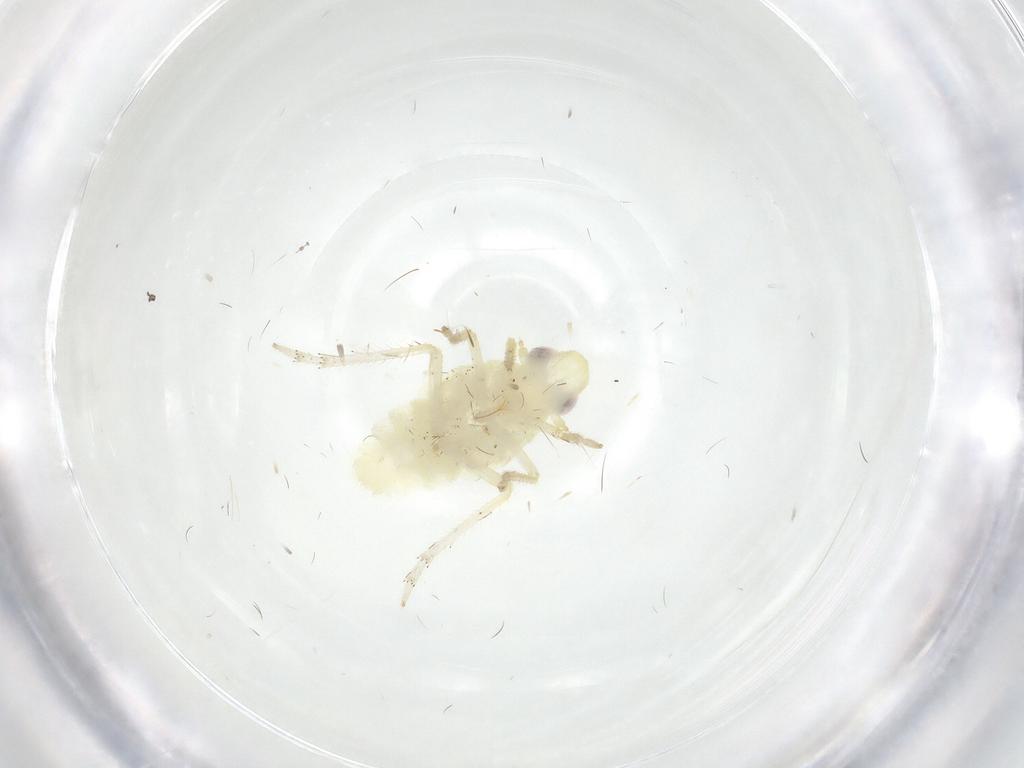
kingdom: Animalia
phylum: Arthropoda
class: Insecta
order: Hemiptera
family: Tropiduchidae
